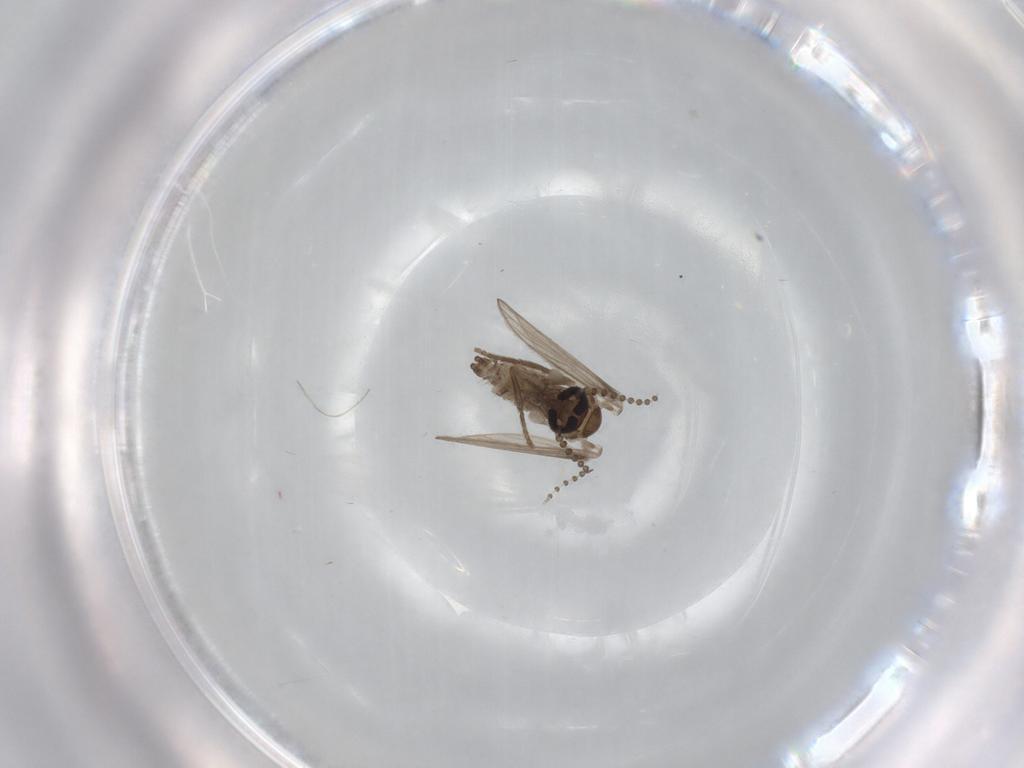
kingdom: Animalia
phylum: Arthropoda
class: Insecta
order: Diptera
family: Psychodidae
